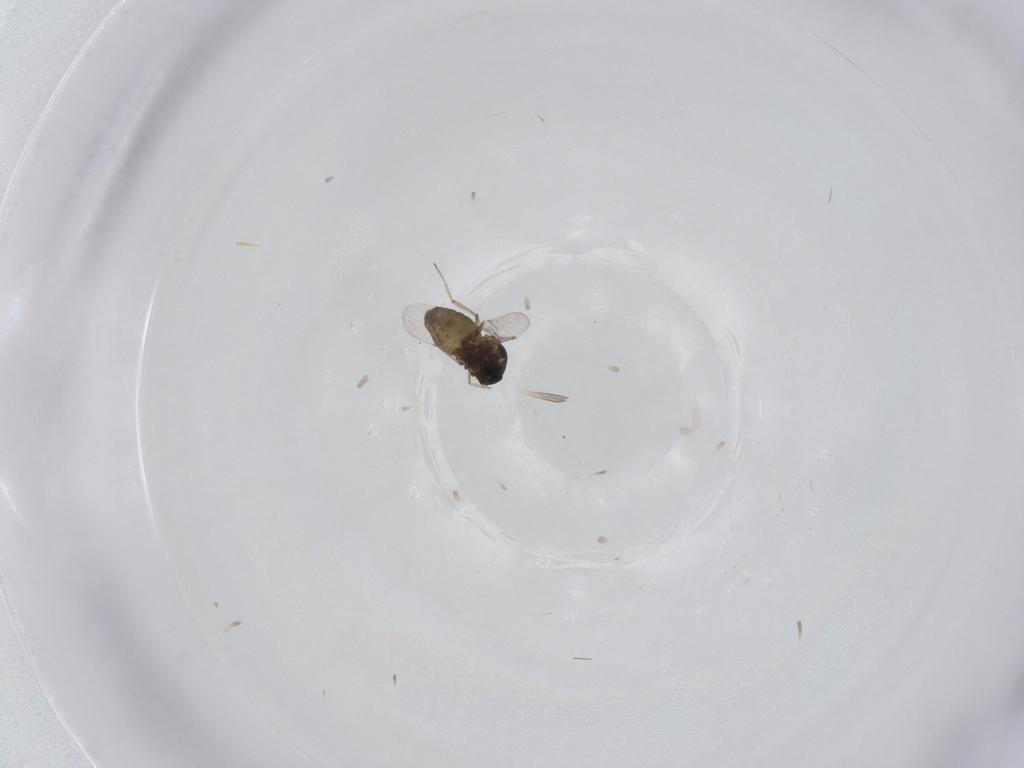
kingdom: Animalia
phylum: Arthropoda
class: Insecta
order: Diptera
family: Ceratopogonidae
